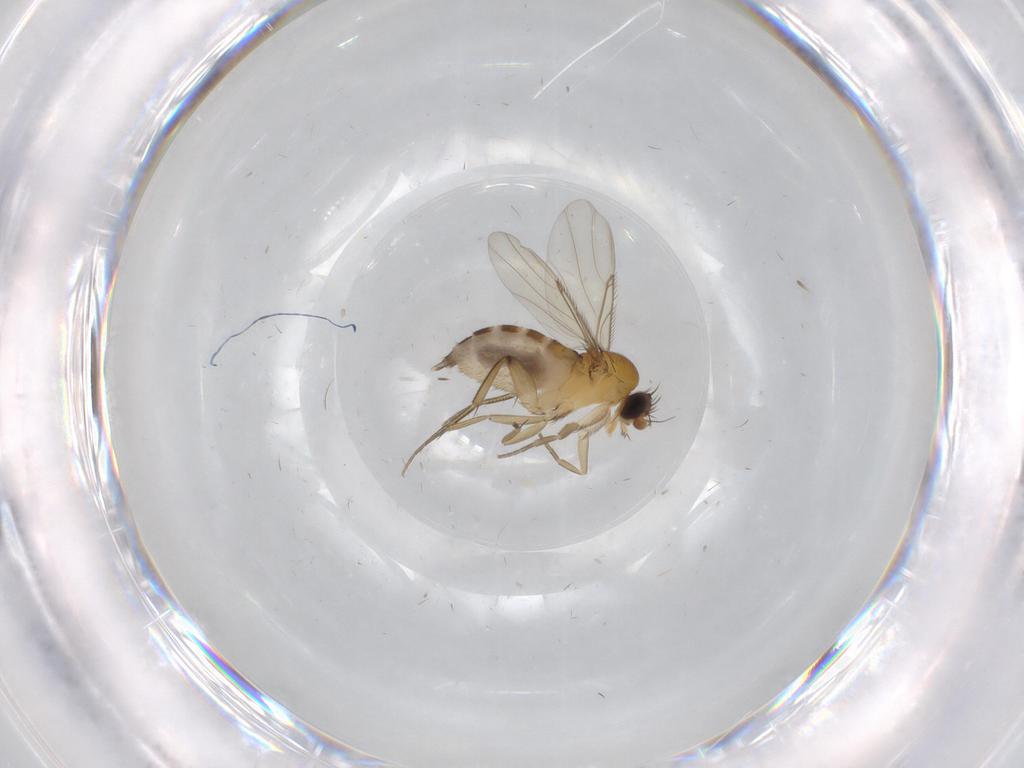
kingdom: Animalia
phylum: Arthropoda
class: Insecta
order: Diptera
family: Phoridae
